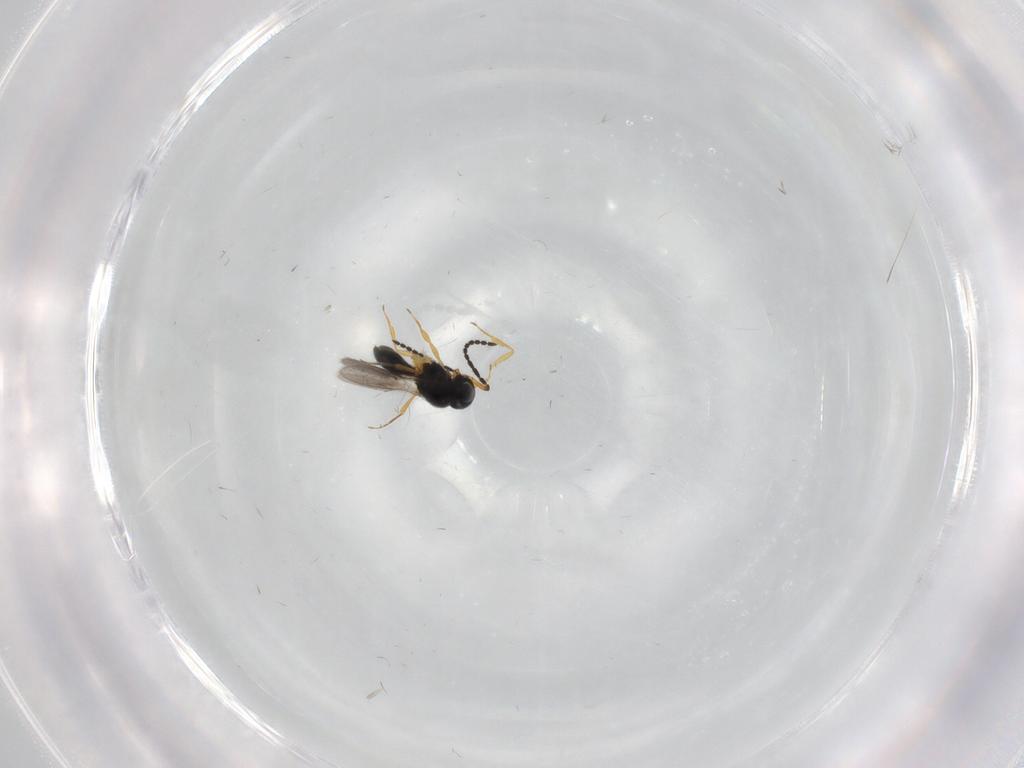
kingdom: Animalia
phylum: Arthropoda
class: Insecta
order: Hymenoptera
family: Scelionidae
